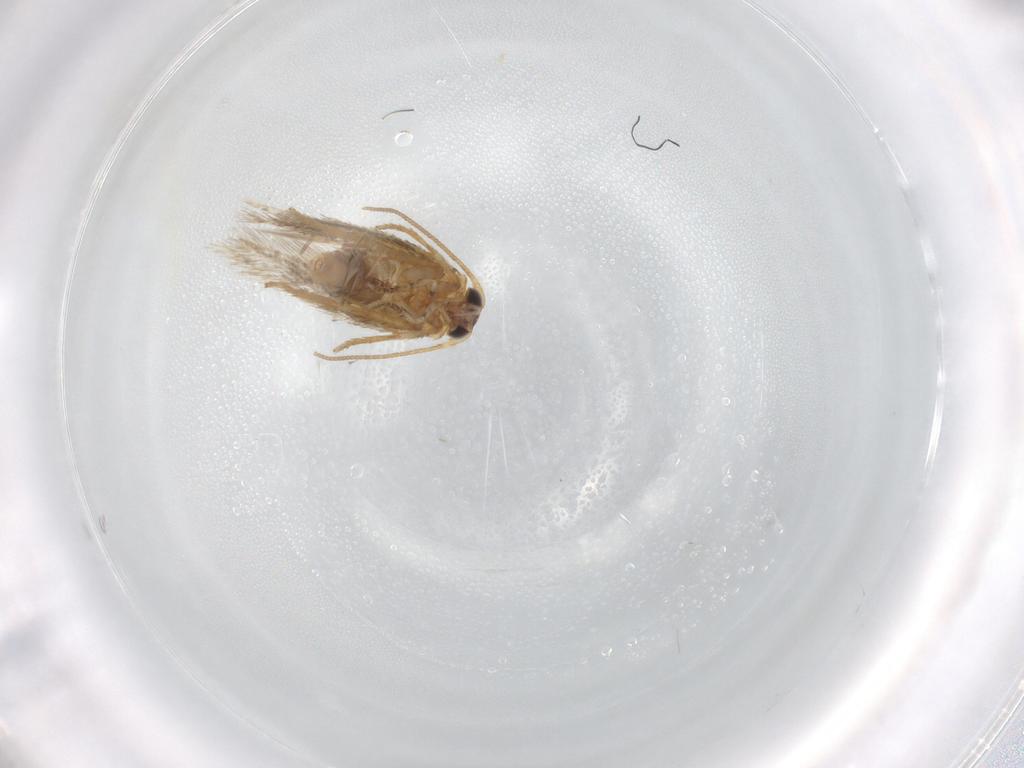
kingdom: Animalia
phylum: Arthropoda
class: Insecta
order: Lepidoptera
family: Nepticulidae
